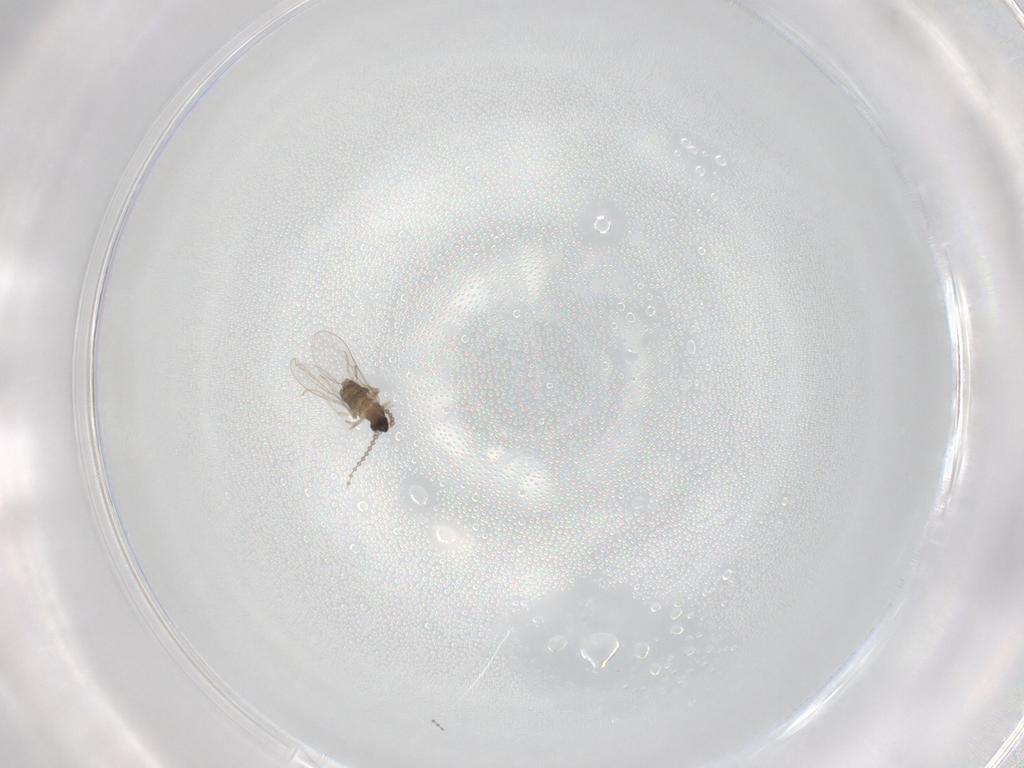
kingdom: Animalia
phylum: Arthropoda
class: Insecta
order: Diptera
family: Cecidomyiidae
